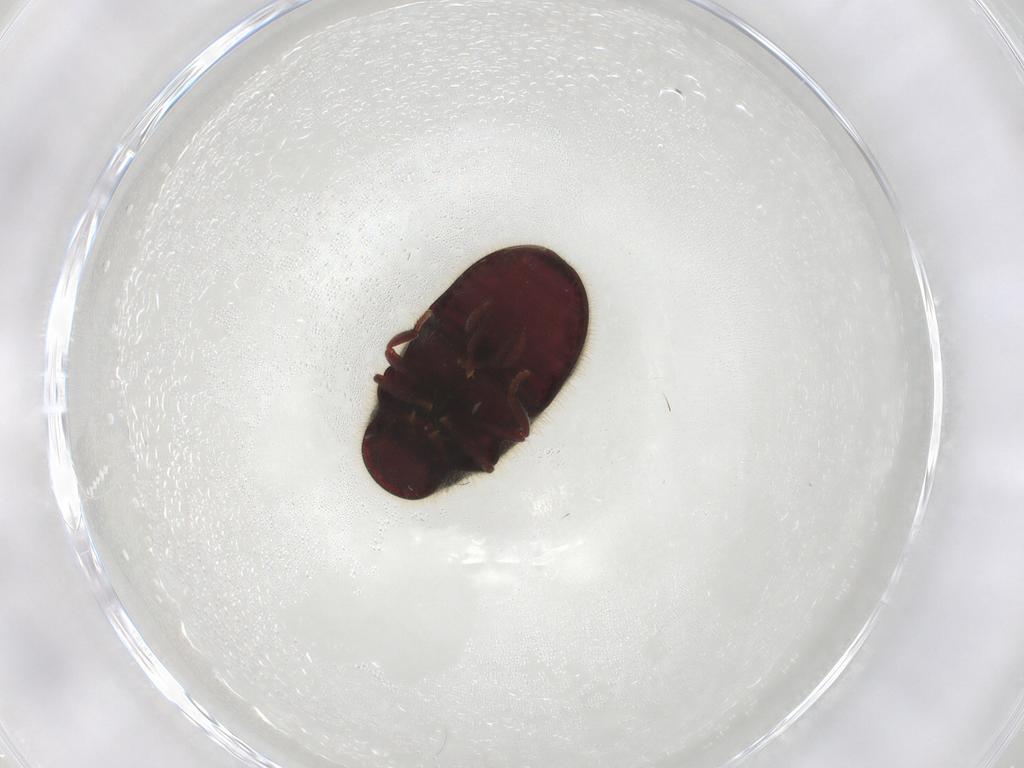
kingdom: Animalia
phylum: Arthropoda
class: Insecta
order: Coleoptera
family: Ptinidae
